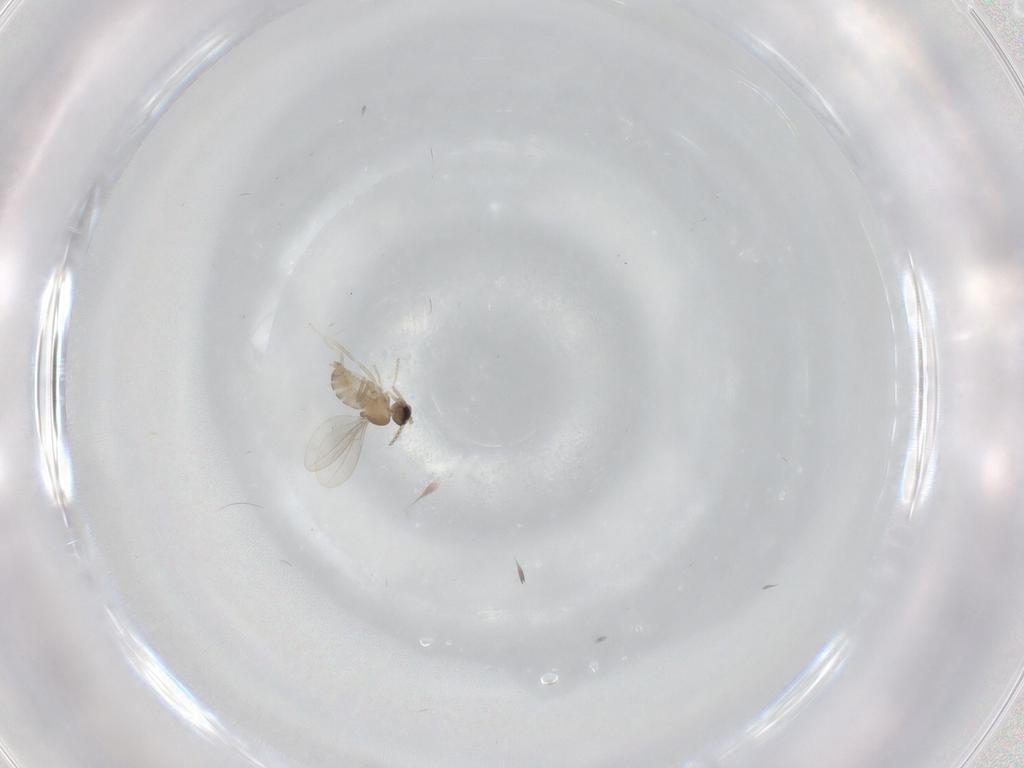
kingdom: Animalia
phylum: Arthropoda
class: Insecta
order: Diptera
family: Cecidomyiidae
